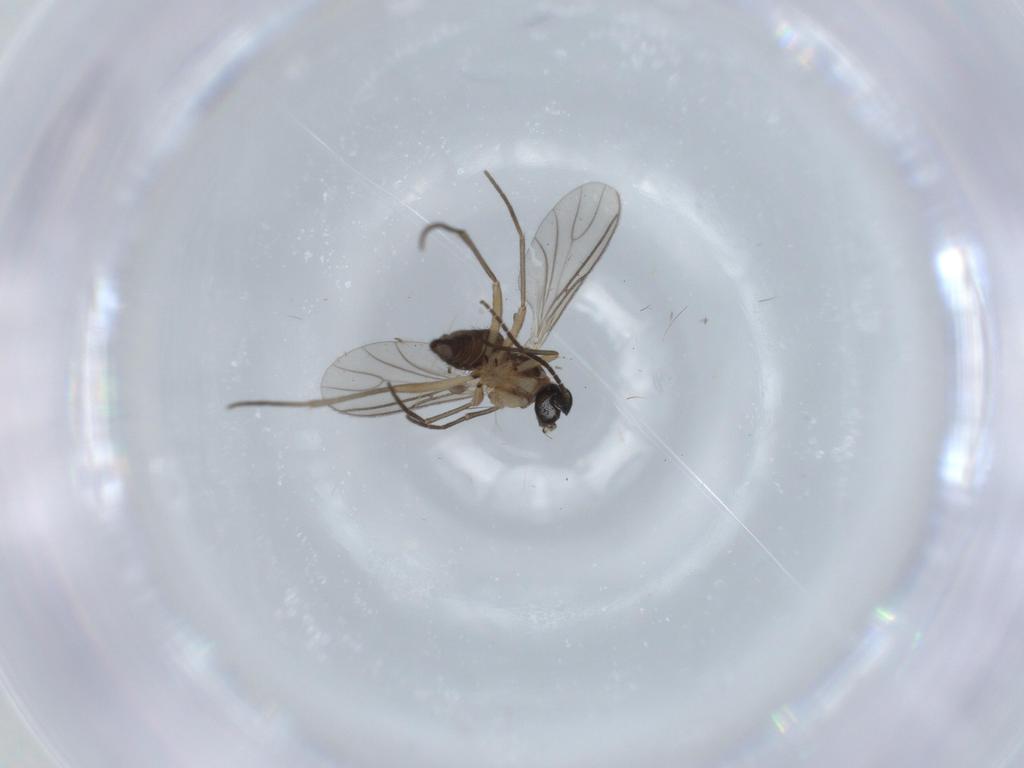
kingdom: Animalia
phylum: Arthropoda
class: Insecta
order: Diptera
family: Sciaridae
